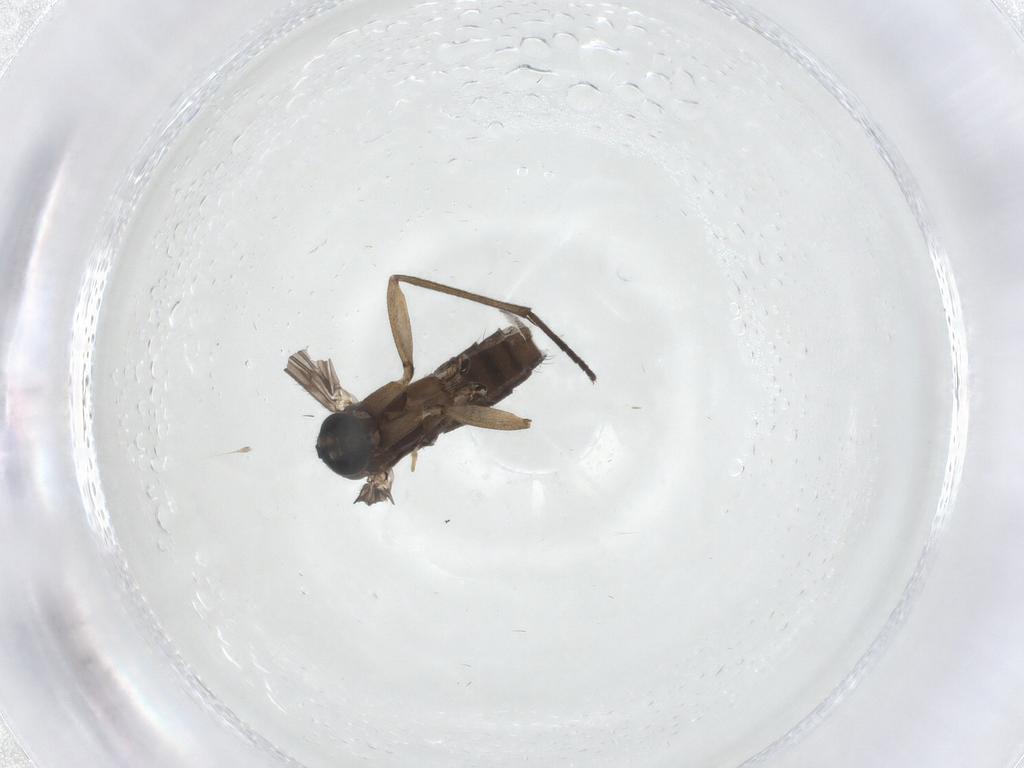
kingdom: Animalia
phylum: Arthropoda
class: Insecta
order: Diptera
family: Sciaridae
